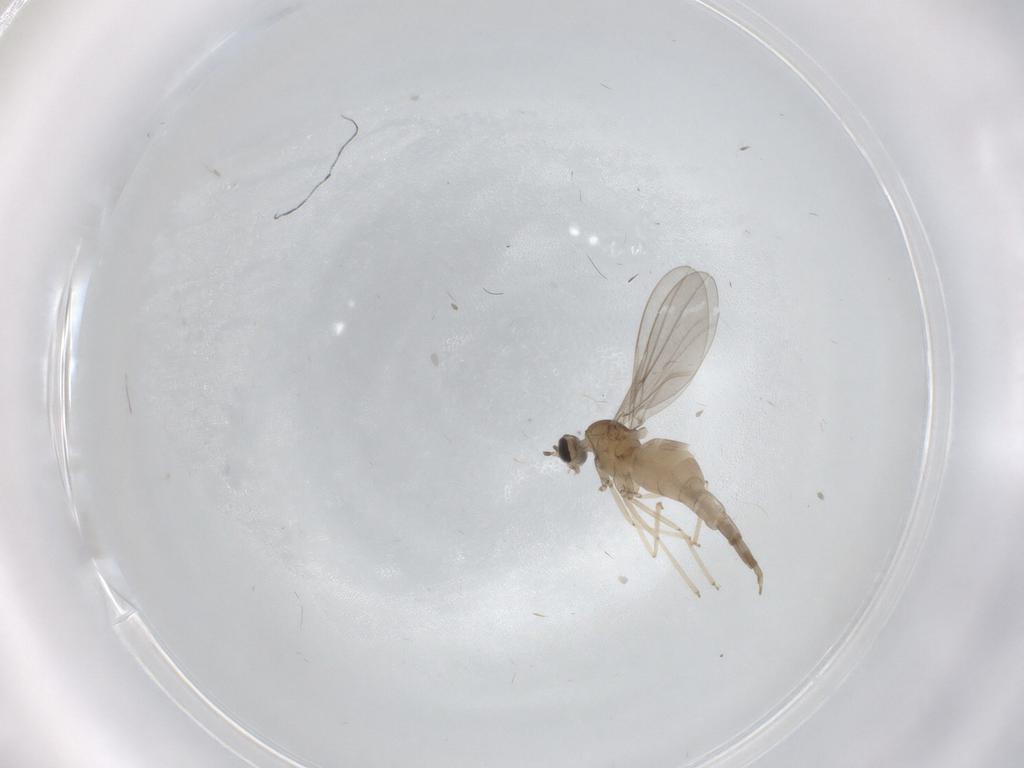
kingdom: Animalia
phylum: Arthropoda
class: Insecta
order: Diptera
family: Cecidomyiidae
